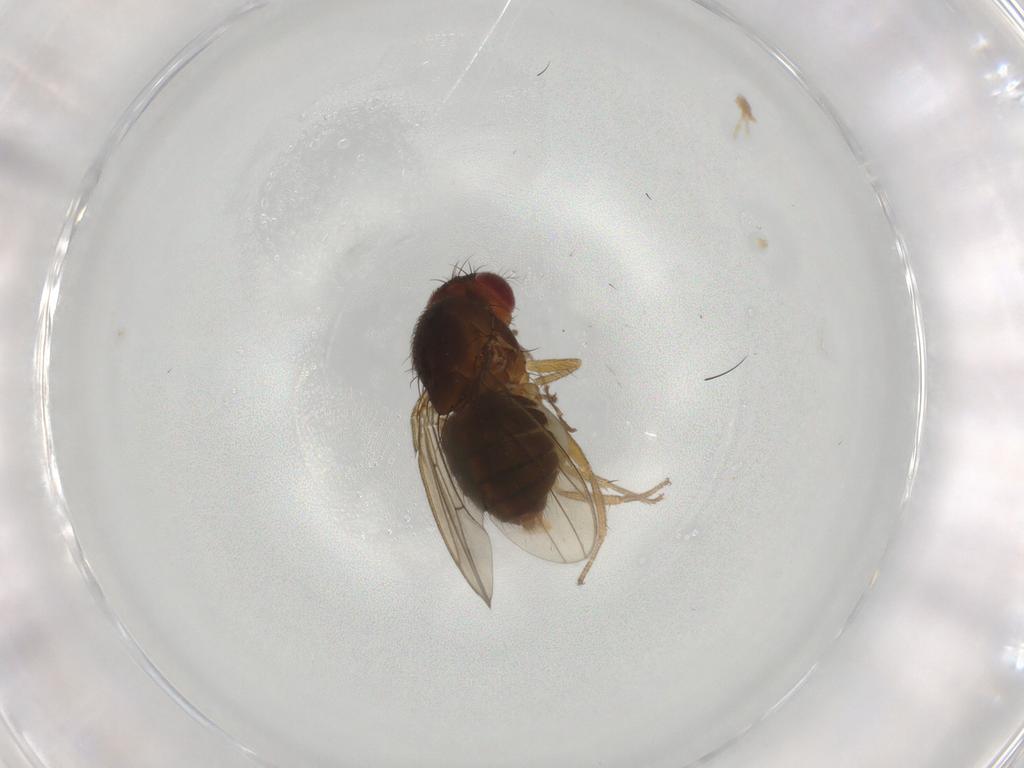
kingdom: Animalia
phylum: Arthropoda
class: Insecta
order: Diptera
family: Drosophilidae
